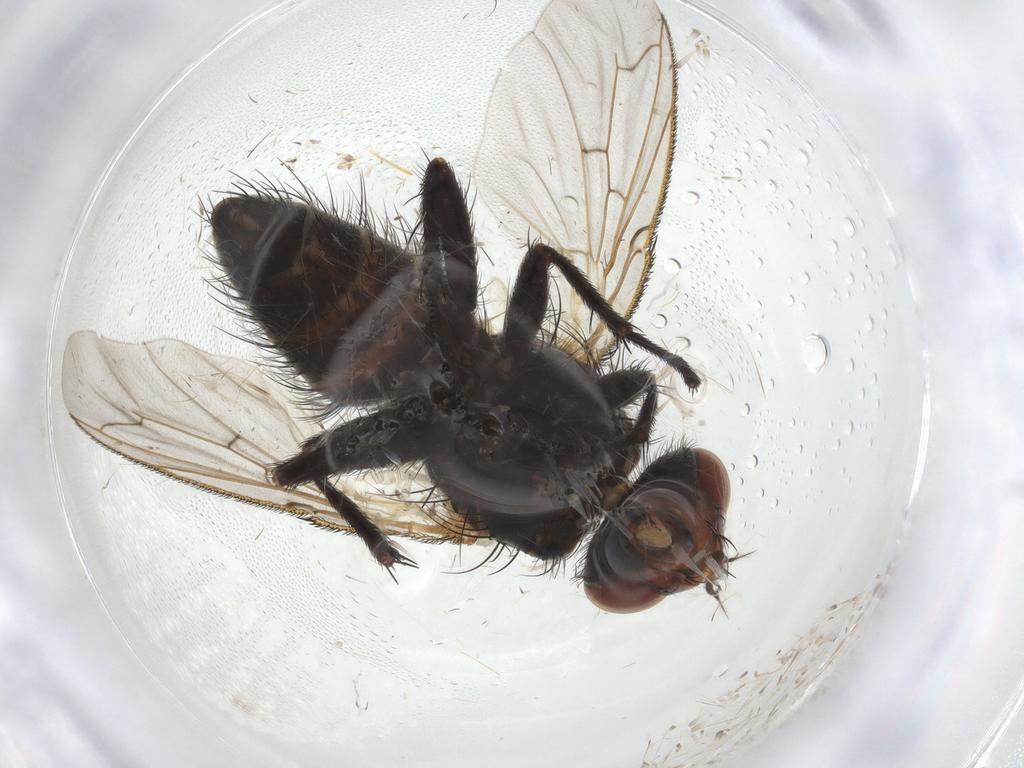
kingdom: Animalia
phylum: Arthropoda
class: Insecta
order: Diptera
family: Tachinidae
